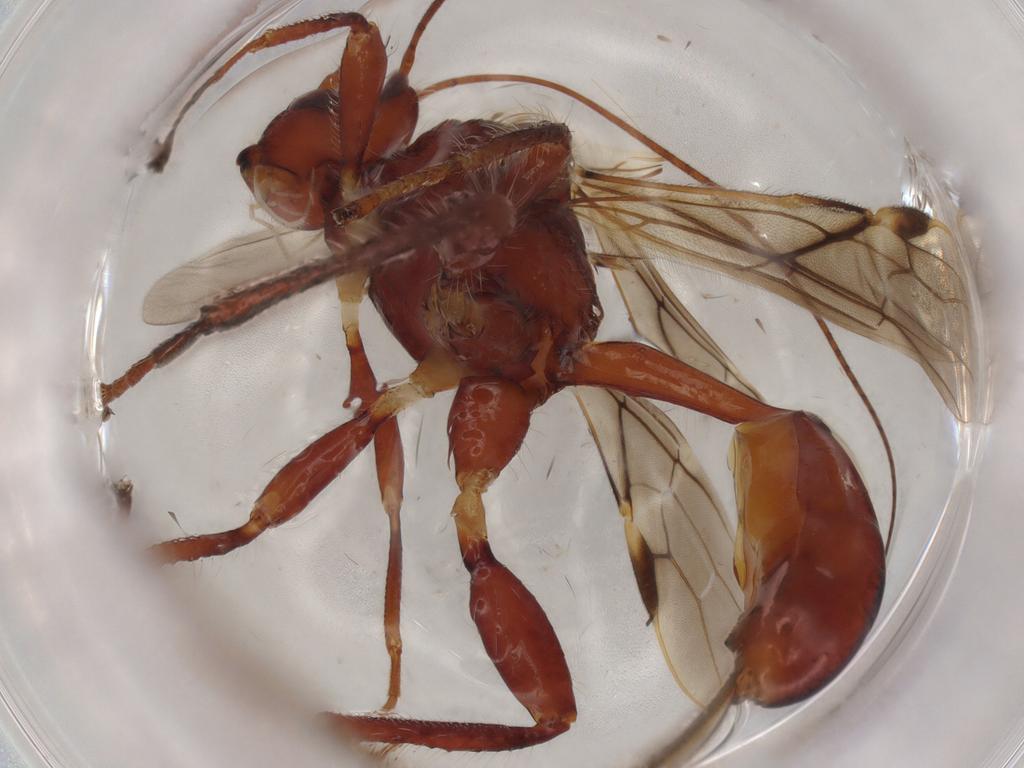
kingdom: Animalia
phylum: Arthropoda
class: Insecta
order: Hymenoptera
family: Braconidae
